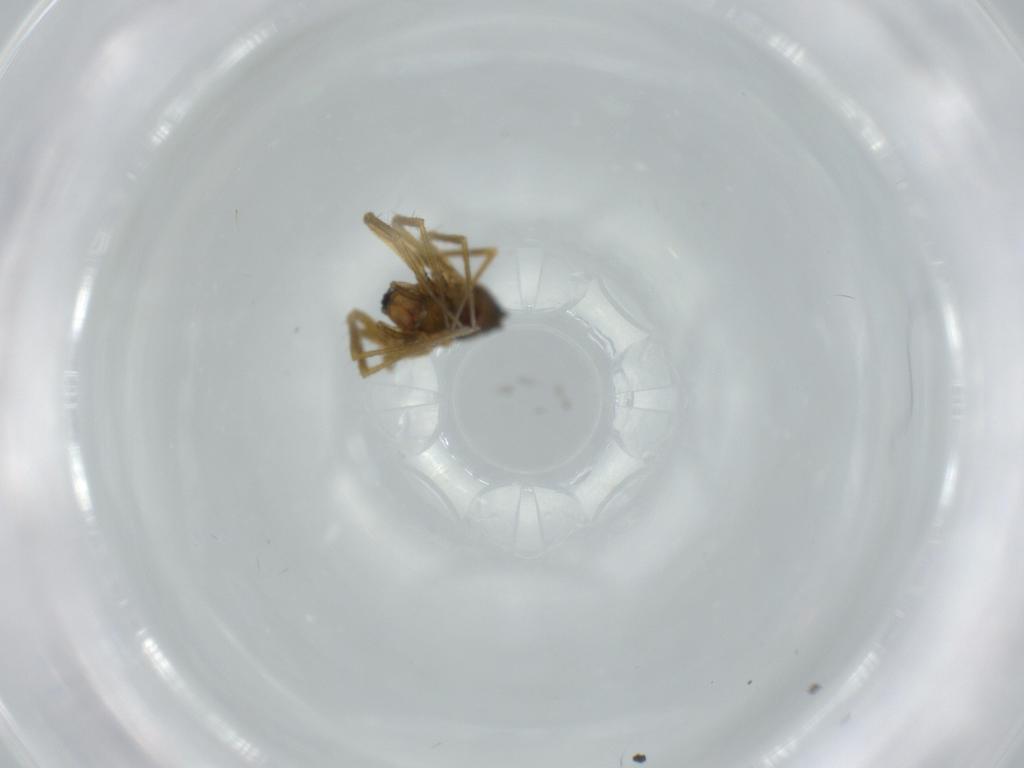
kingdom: Animalia
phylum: Arthropoda
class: Arachnida
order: Araneae
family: Linyphiidae
